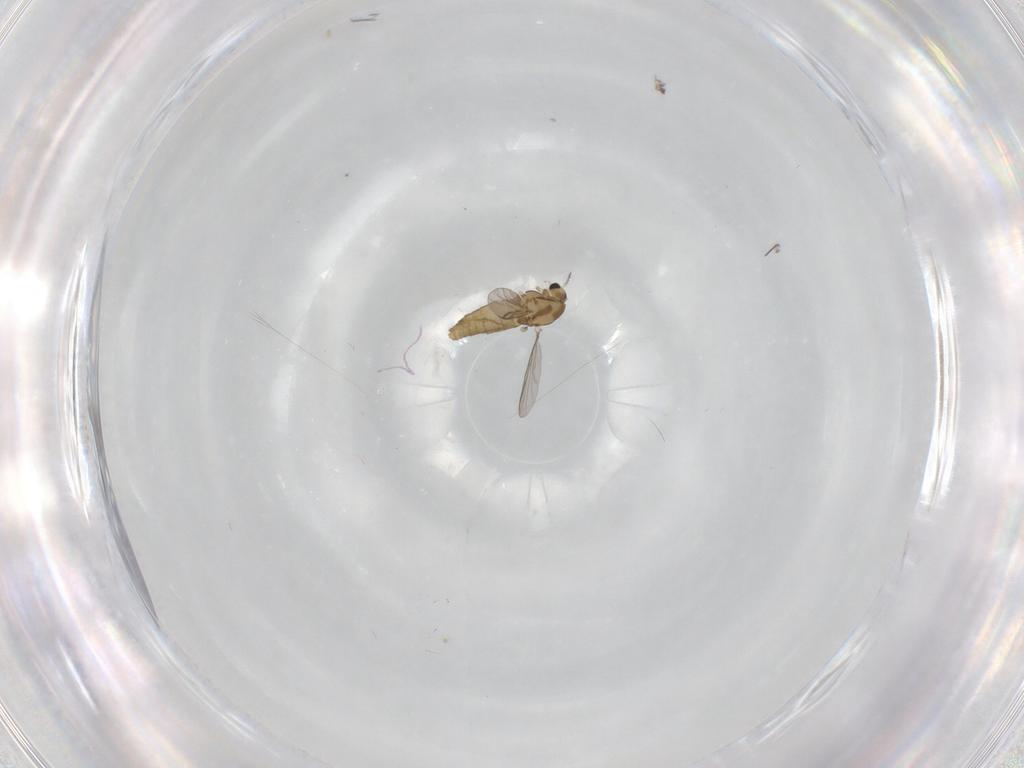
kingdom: Animalia
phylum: Arthropoda
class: Insecta
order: Diptera
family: Chironomidae
